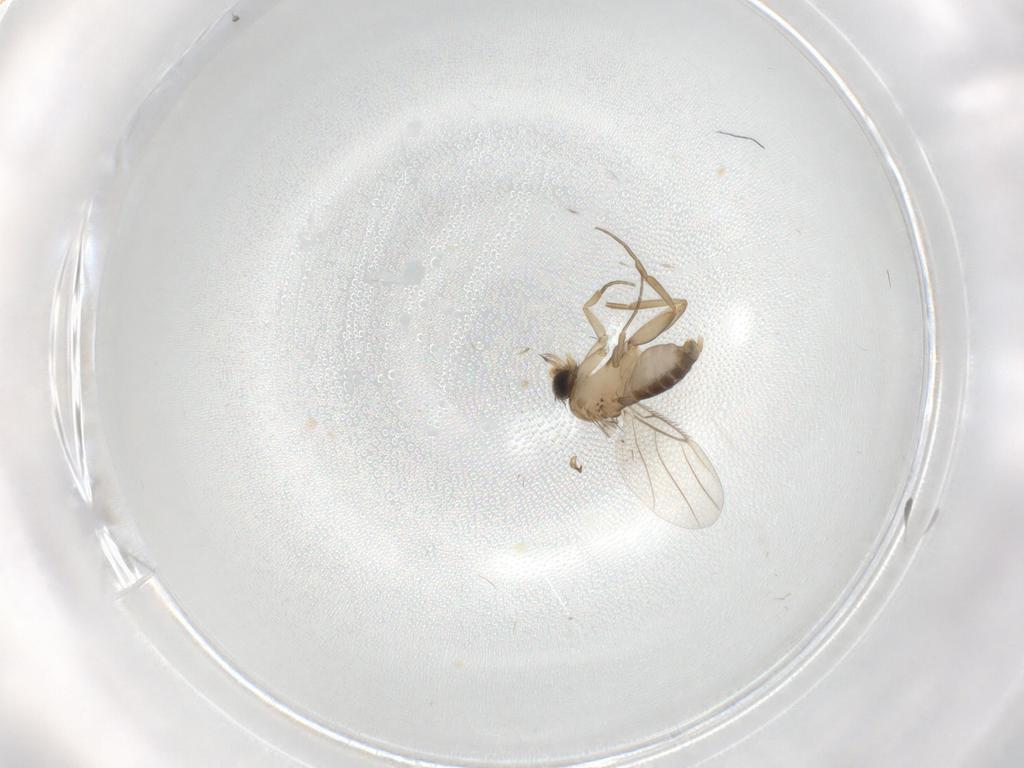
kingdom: Animalia
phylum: Arthropoda
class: Insecta
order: Diptera
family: Phoridae
